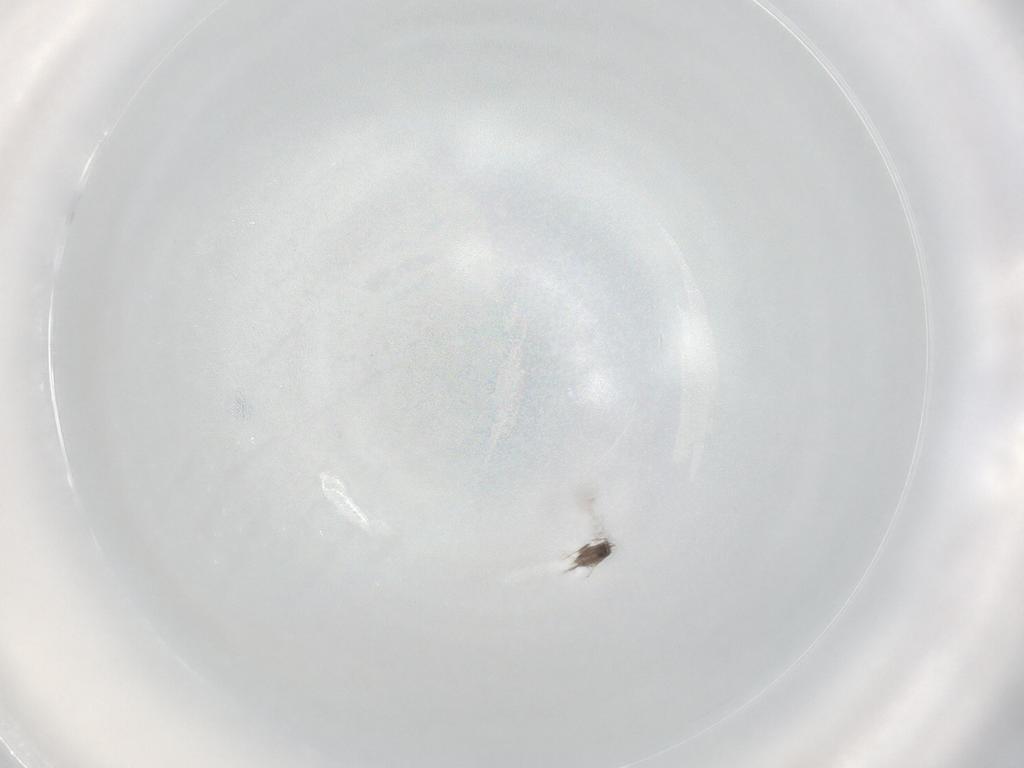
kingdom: Animalia
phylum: Arthropoda
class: Insecta
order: Hymenoptera
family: Mymaridae
